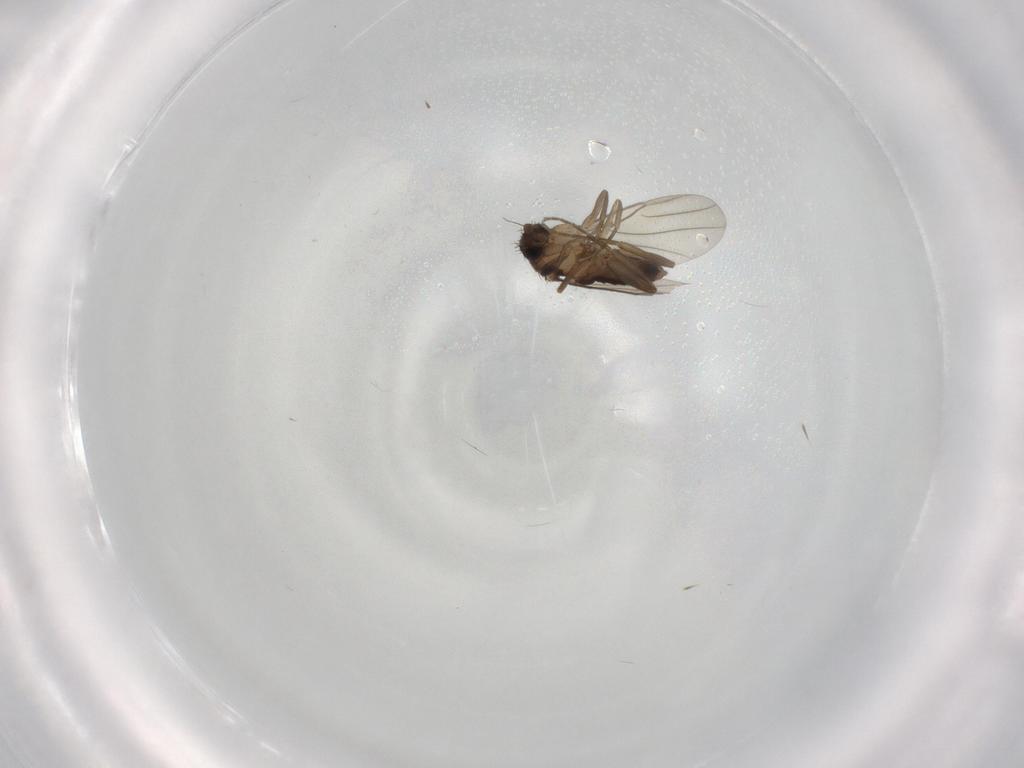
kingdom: Animalia
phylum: Arthropoda
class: Insecta
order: Diptera
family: Phoridae
